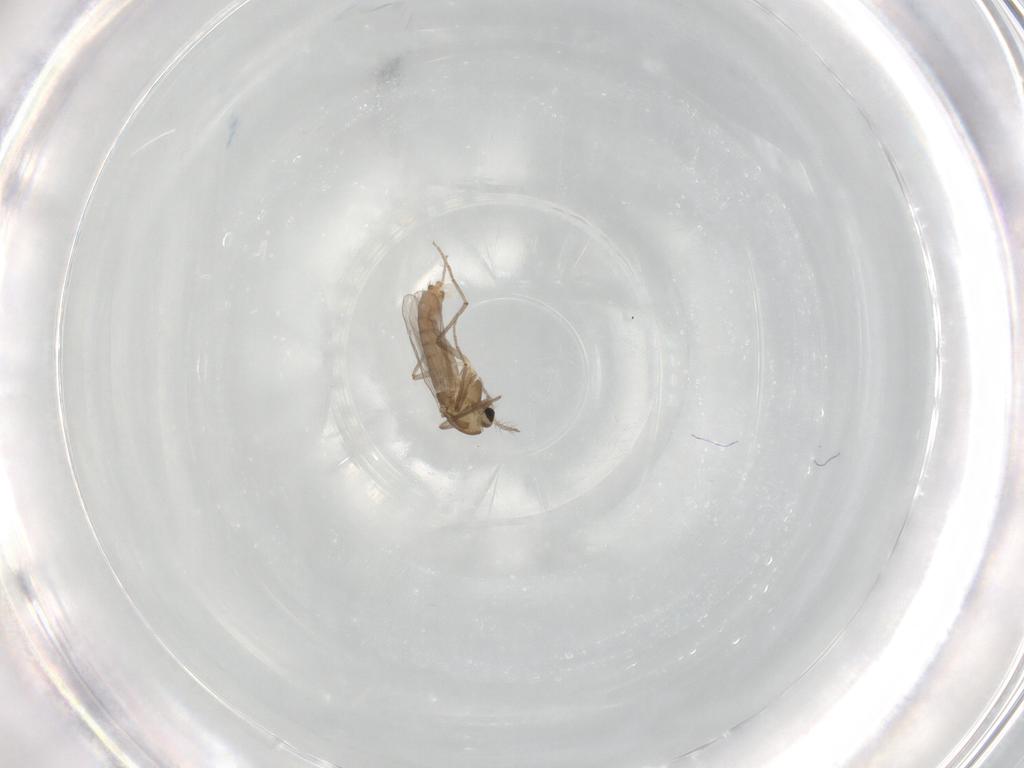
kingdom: Animalia
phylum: Arthropoda
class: Insecta
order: Diptera
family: Chironomidae
